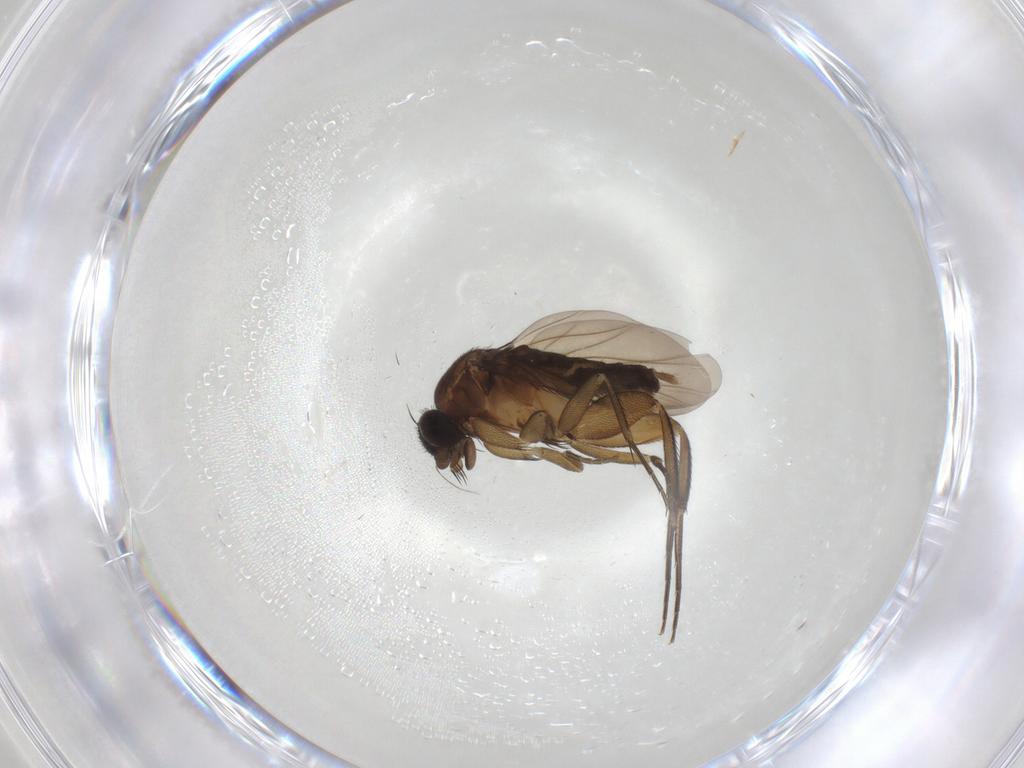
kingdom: Animalia
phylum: Arthropoda
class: Insecta
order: Diptera
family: Phoridae
